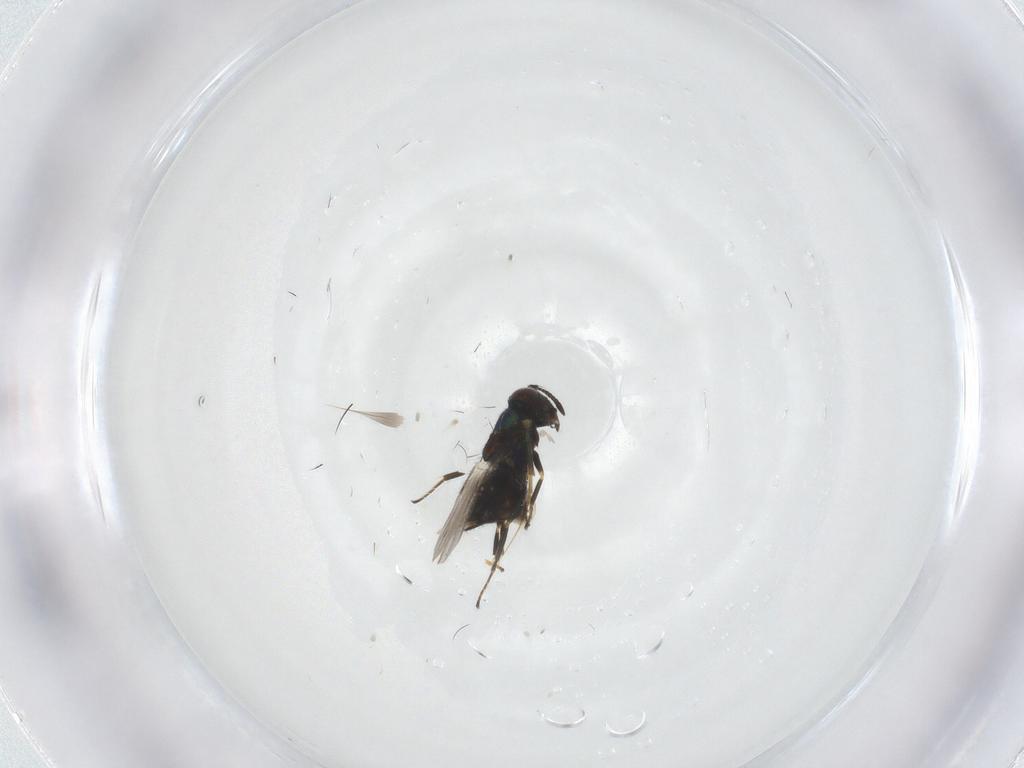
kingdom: Animalia
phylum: Arthropoda
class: Insecta
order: Hymenoptera
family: Encyrtidae
